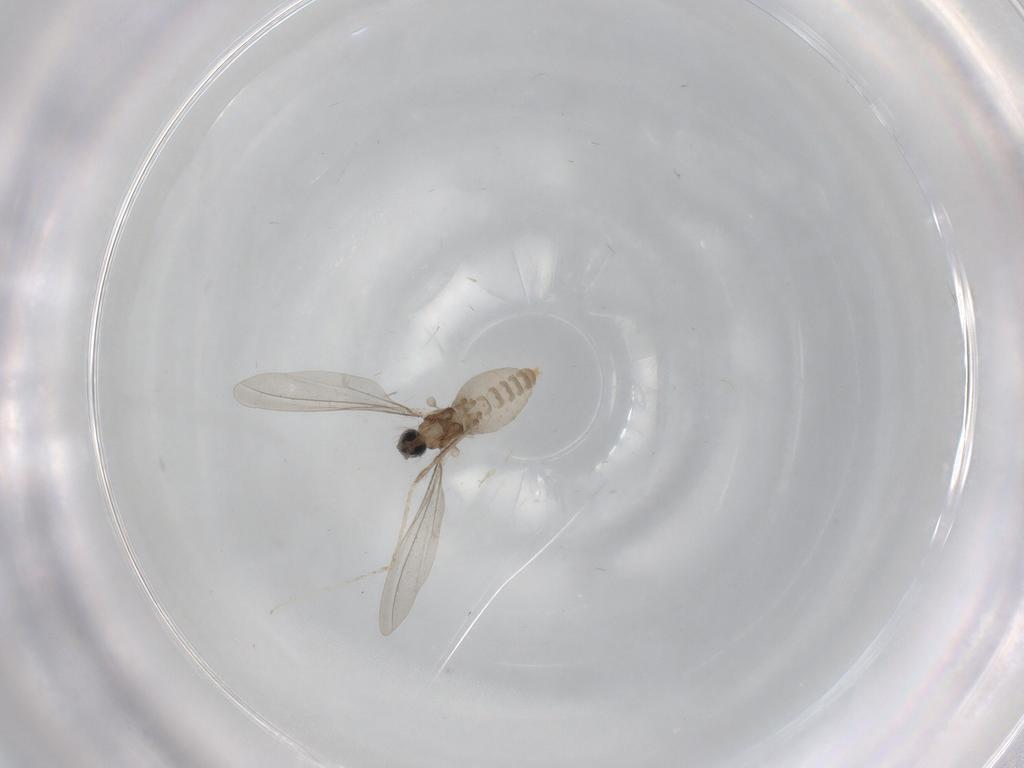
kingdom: Animalia
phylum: Arthropoda
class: Insecta
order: Diptera
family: Cecidomyiidae
